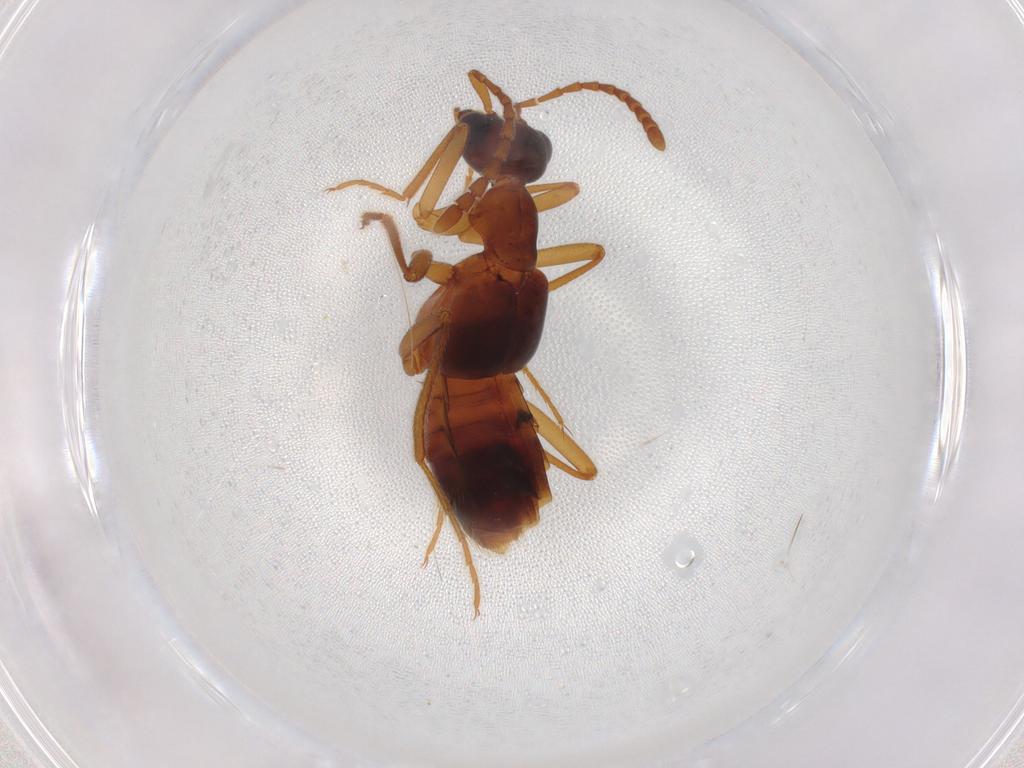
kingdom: Animalia
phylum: Arthropoda
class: Insecta
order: Coleoptera
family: Staphylinidae
